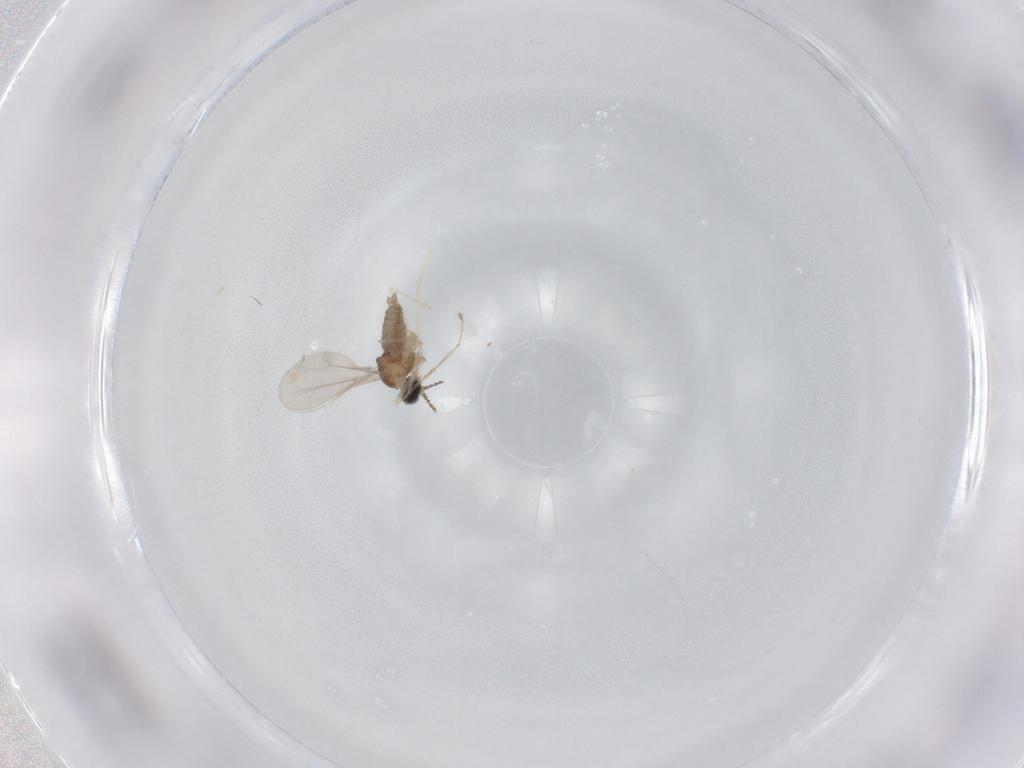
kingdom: Animalia
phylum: Arthropoda
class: Insecta
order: Diptera
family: Cecidomyiidae
